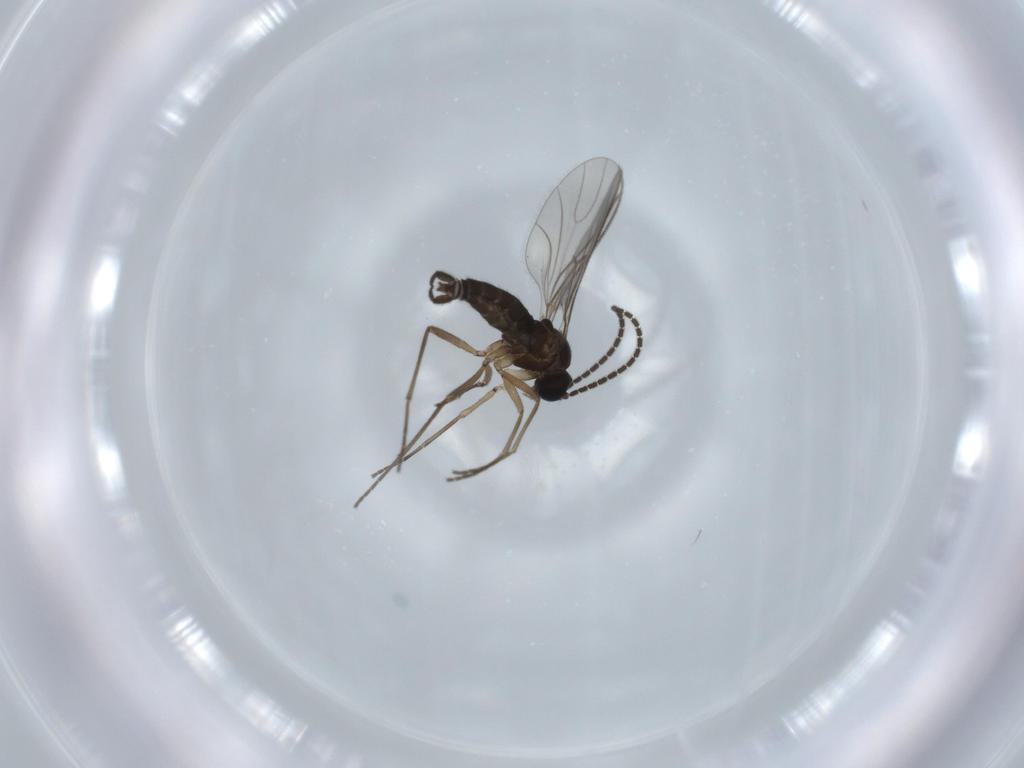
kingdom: Animalia
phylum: Arthropoda
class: Insecta
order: Diptera
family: Sciaridae
